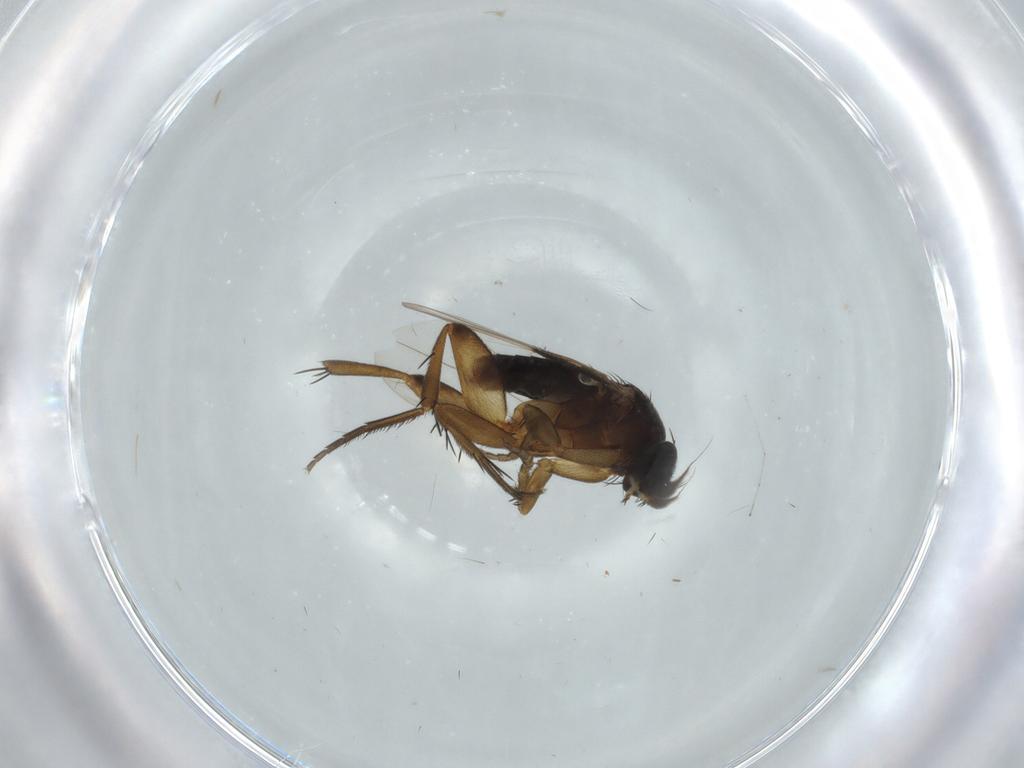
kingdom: Animalia
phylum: Arthropoda
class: Insecta
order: Diptera
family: Phoridae
